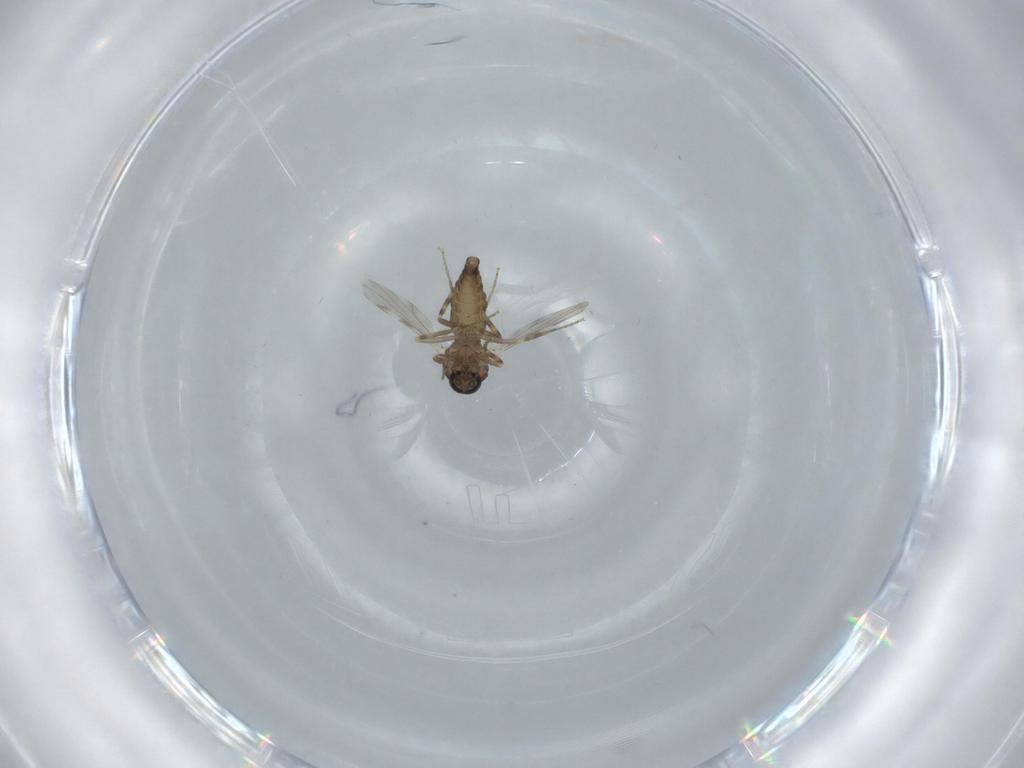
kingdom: Animalia
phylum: Arthropoda
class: Insecta
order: Diptera
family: Ceratopogonidae
